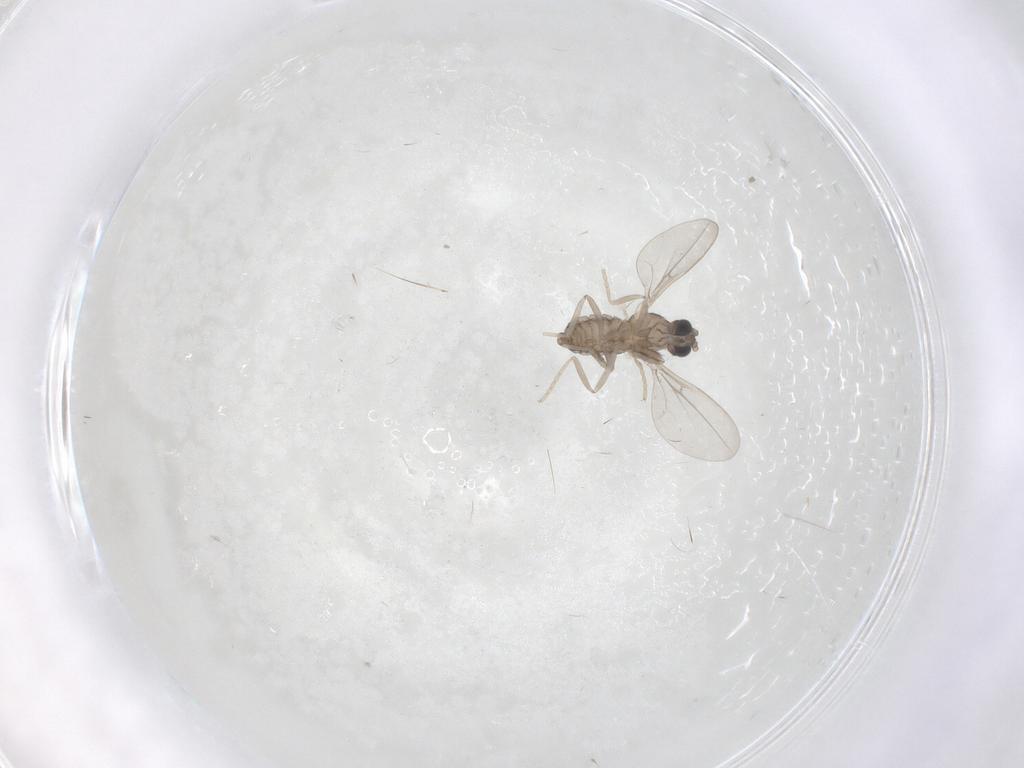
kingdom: Animalia
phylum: Arthropoda
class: Insecta
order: Diptera
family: Cecidomyiidae
